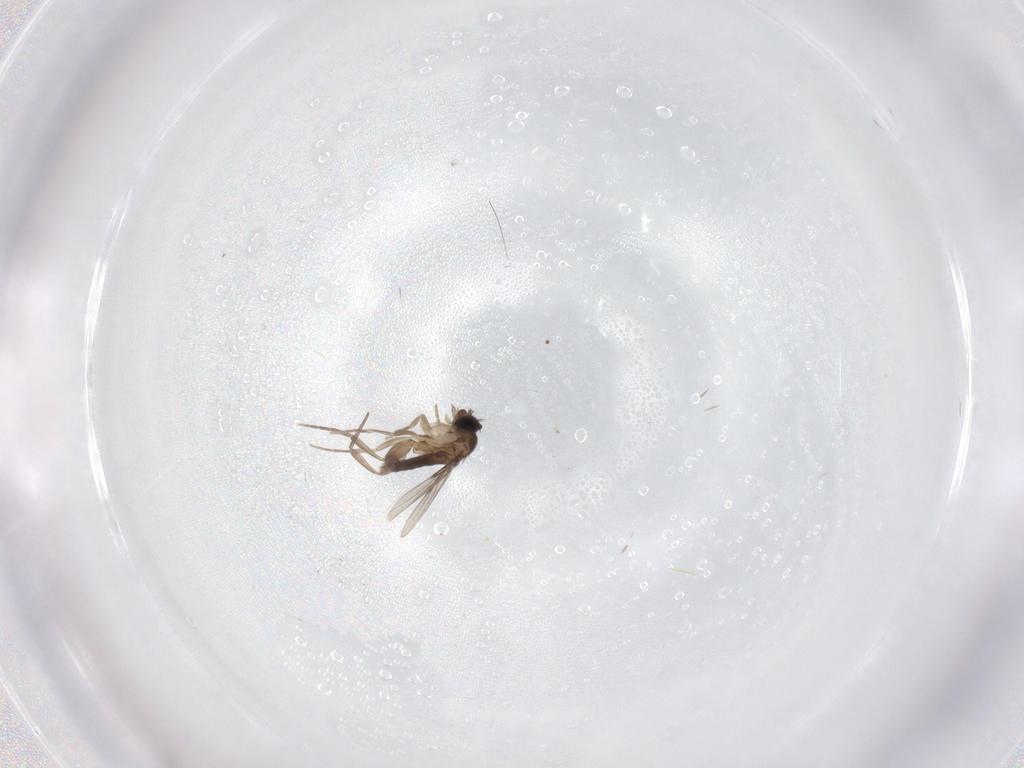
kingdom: Animalia
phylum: Arthropoda
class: Insecta
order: Diptera
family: Phoridae
